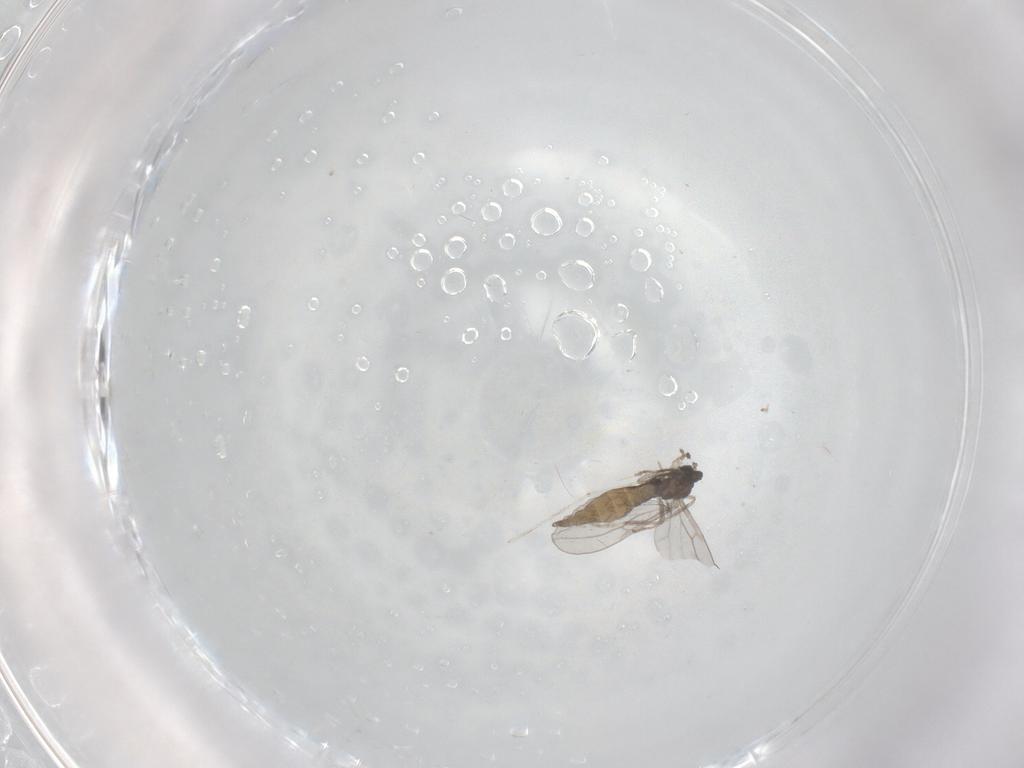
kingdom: Animalia
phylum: Arthropoda
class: Insecta
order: Diptera
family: Cecidomyiidae
